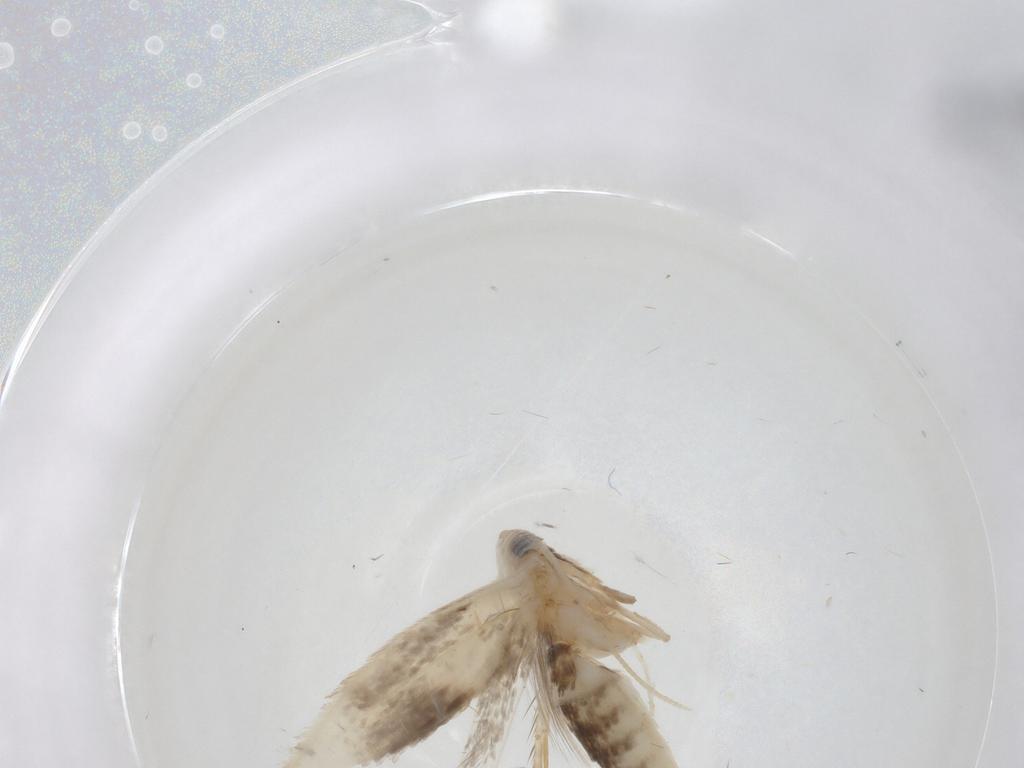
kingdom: Animalia
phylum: Arthropoda
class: Insecta
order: Lepidoptera
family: Opostegidae
